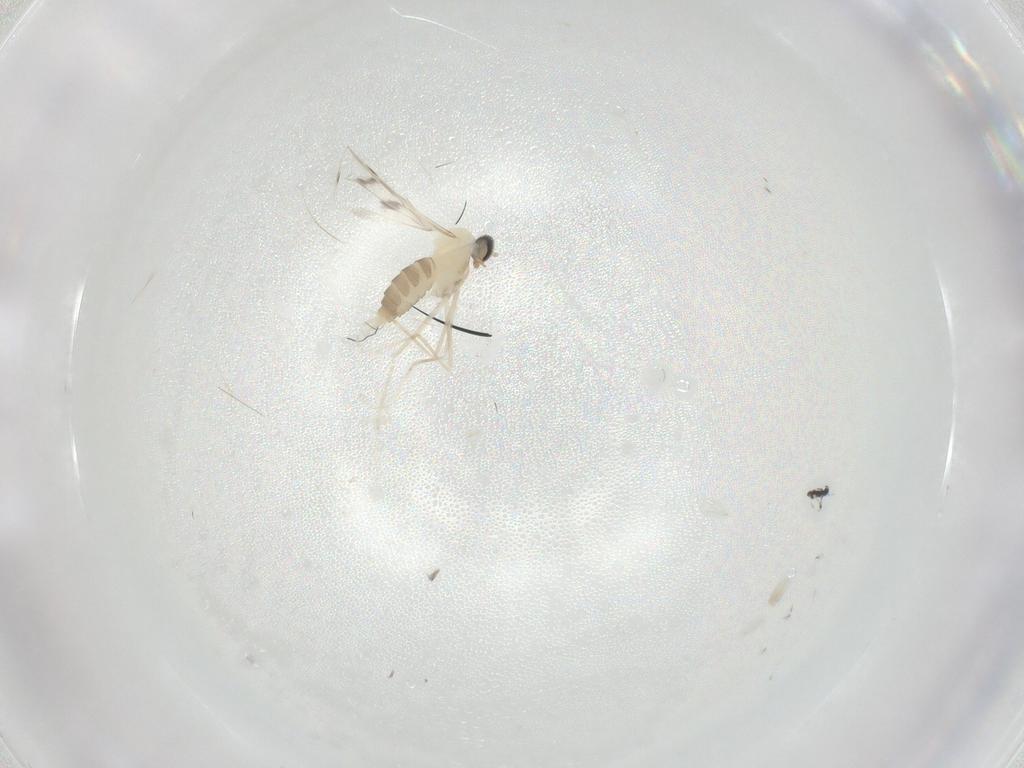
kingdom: Animalia
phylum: Arthropoda
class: Insecta
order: Diptera
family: Cecidomyiidae
